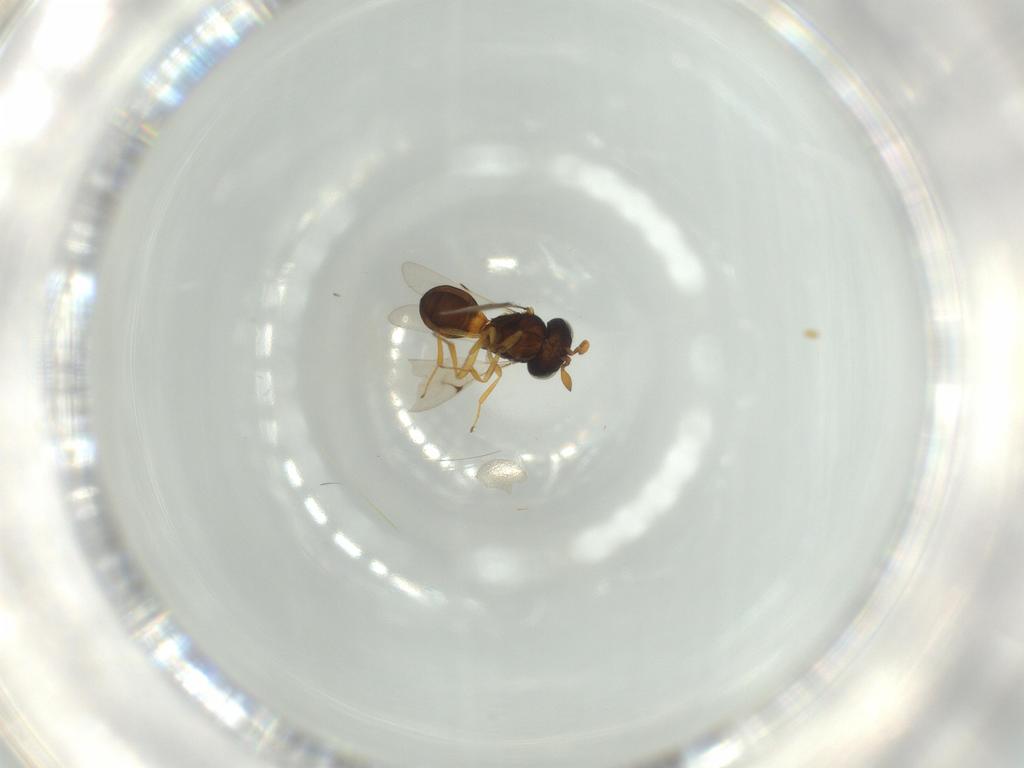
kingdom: Animalia
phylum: Arthropoda
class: Insecta
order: Hymenoptera
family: Scelionidae
